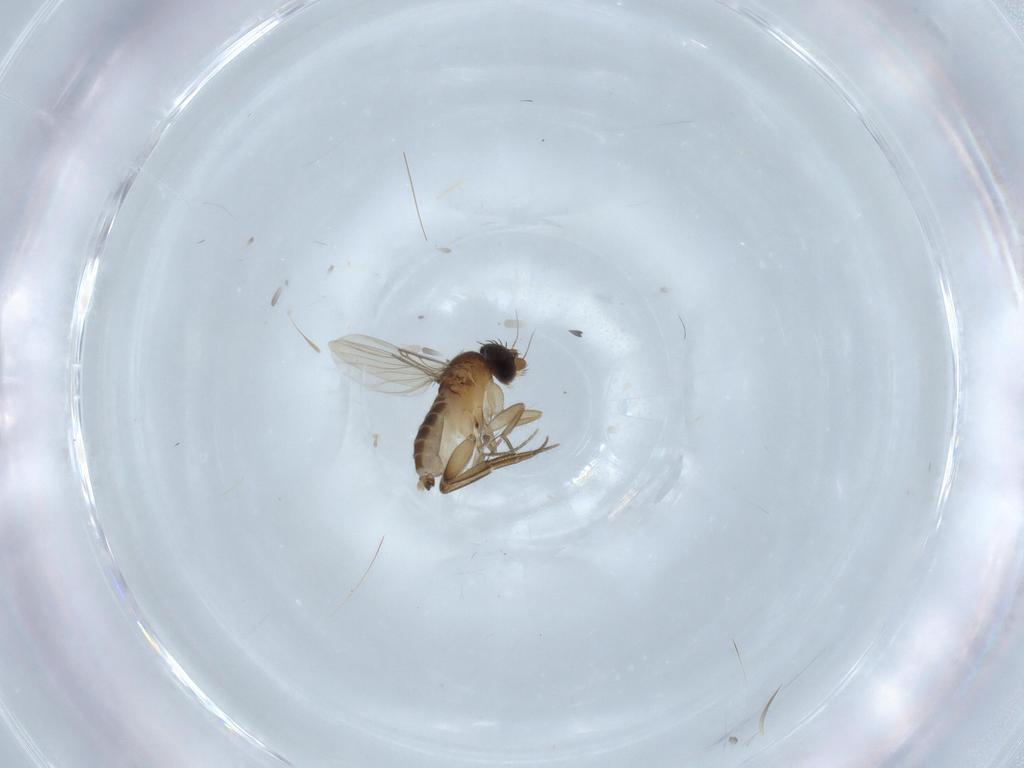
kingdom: Animalia
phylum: Arthropoda
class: Insecta
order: Diptera
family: Phoridae
